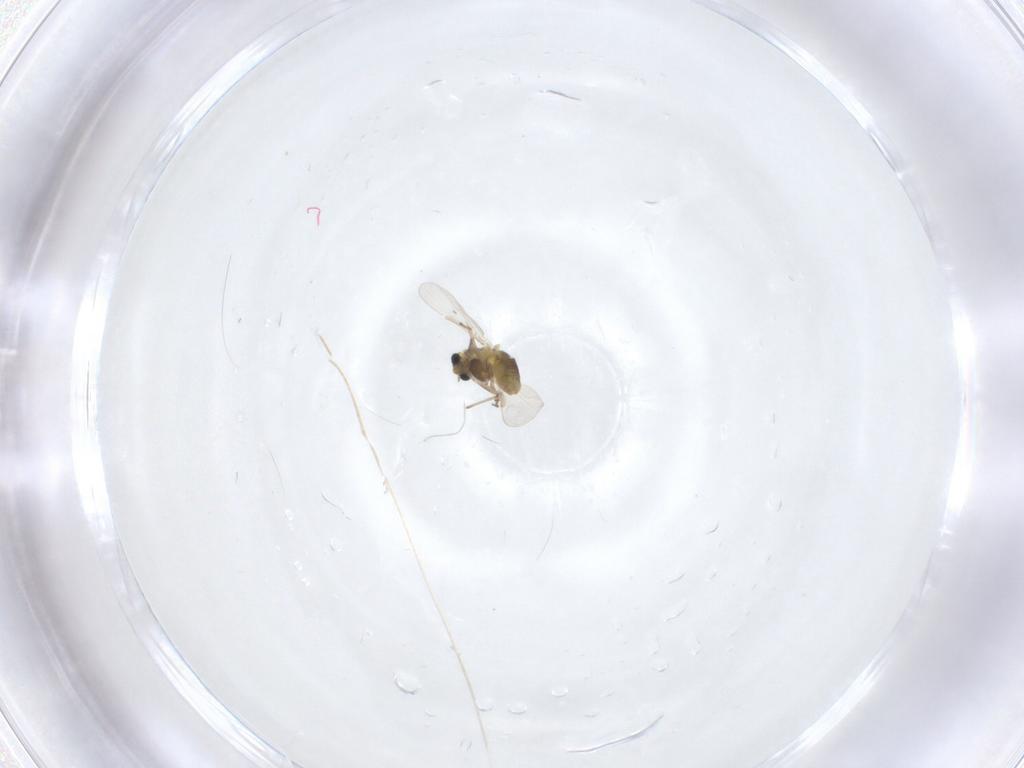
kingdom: Animalia
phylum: Arthropoda
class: Insecta
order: Diptera
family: Chironomidae
